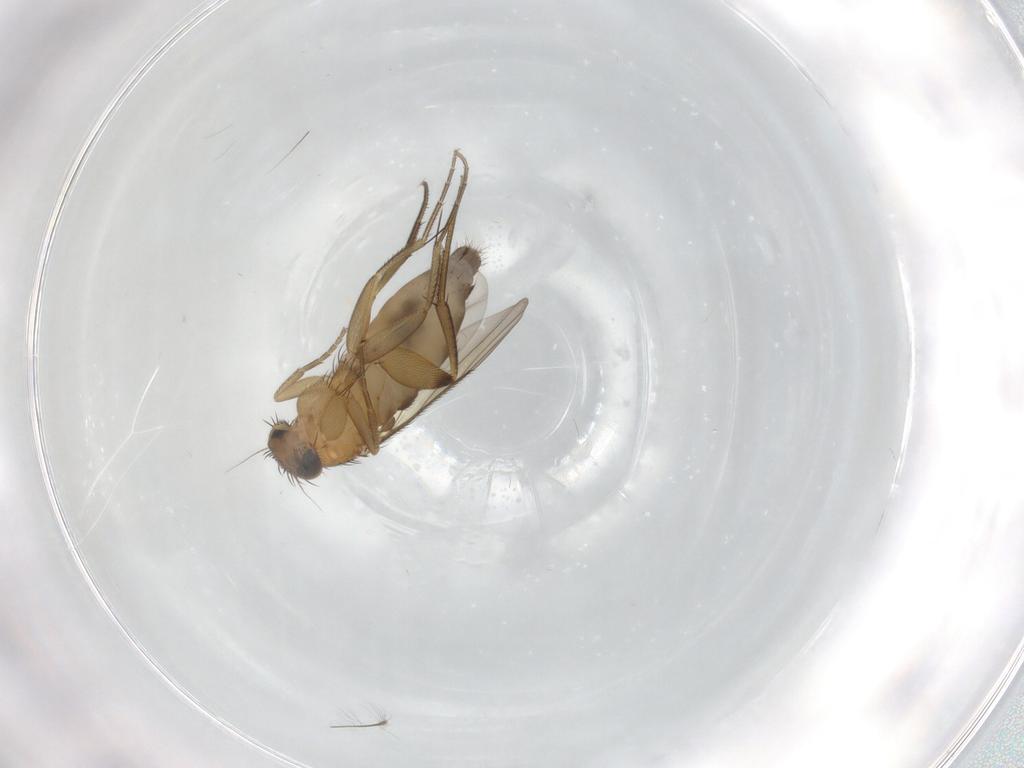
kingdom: Animalia
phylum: Arthropoda
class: Insecta
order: Diptera
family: Phoridae
